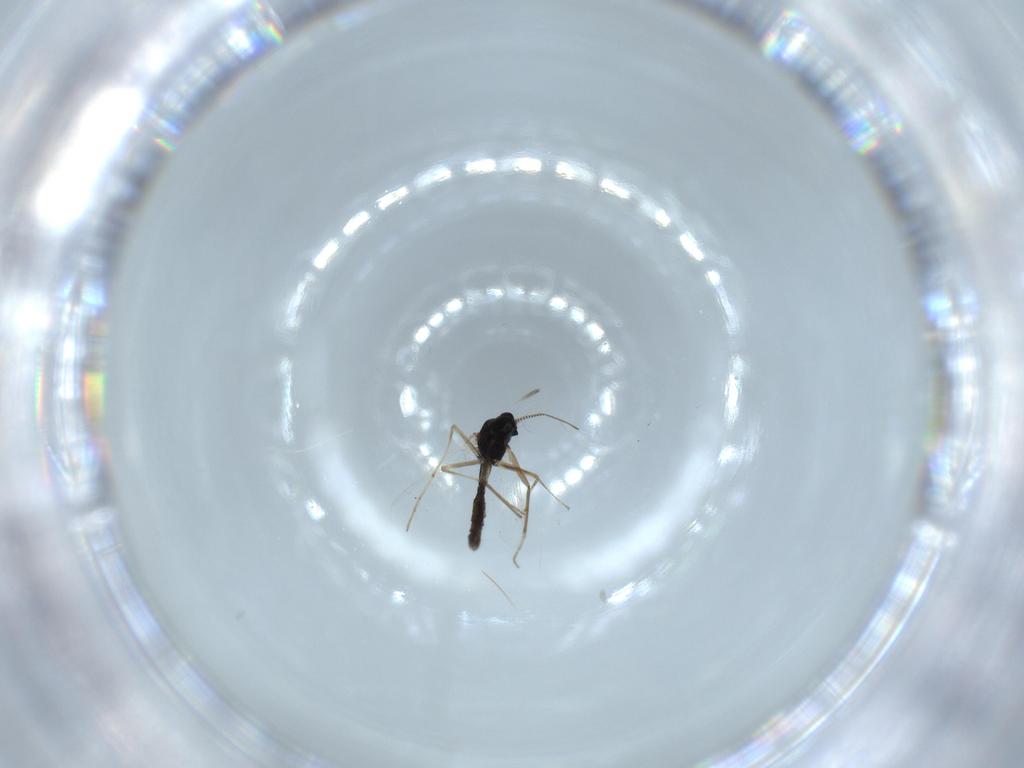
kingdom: Animalia
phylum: Arthropoda
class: Insecta
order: Diptera
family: Chironomidae
